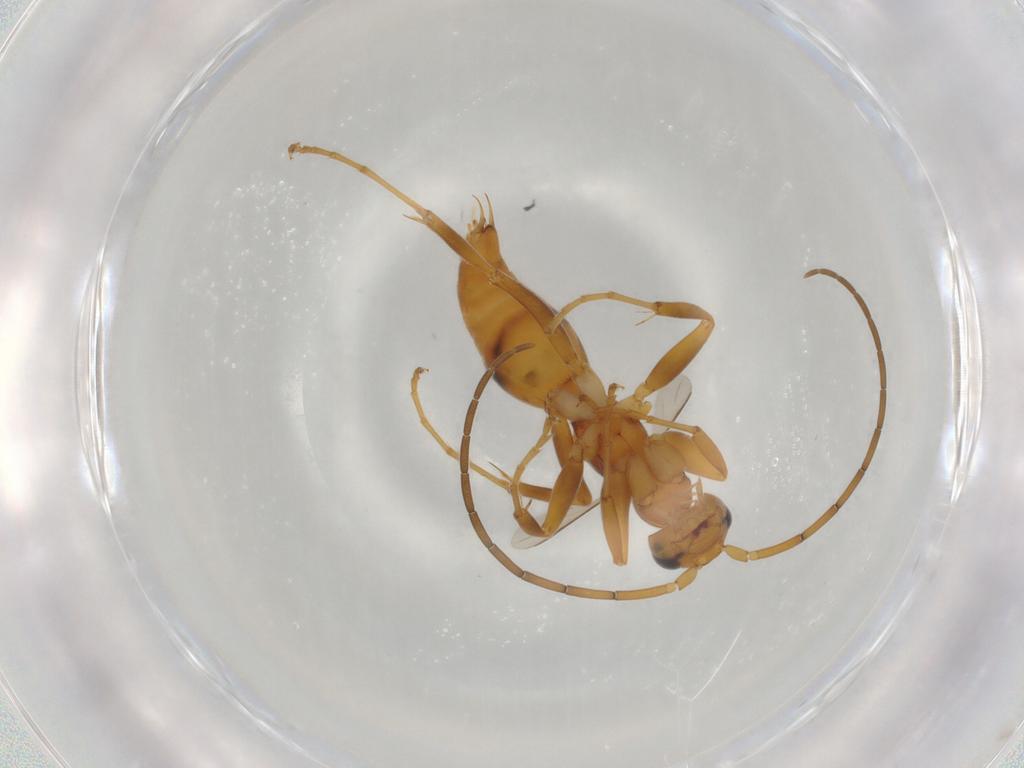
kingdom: Animalia
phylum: Arthropoda
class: Insecta
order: Hymenoptera
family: Rhopalosomatidae
